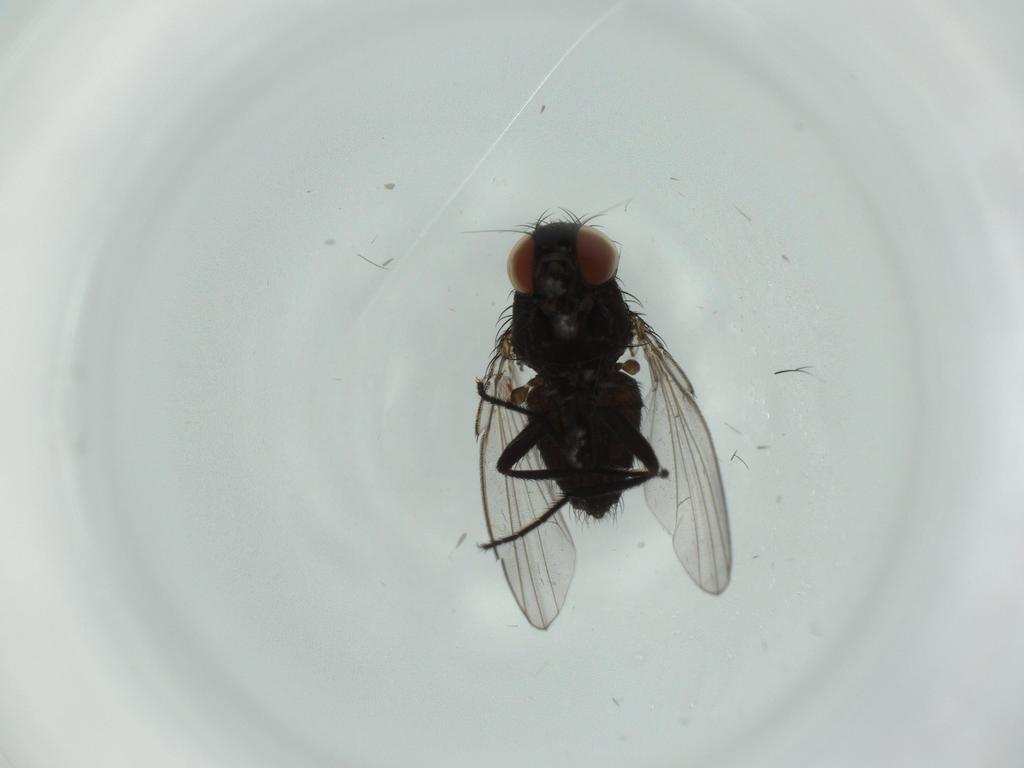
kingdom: Animalia
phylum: Arthropoda
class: Insecta
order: Diptera
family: Milichiidae
